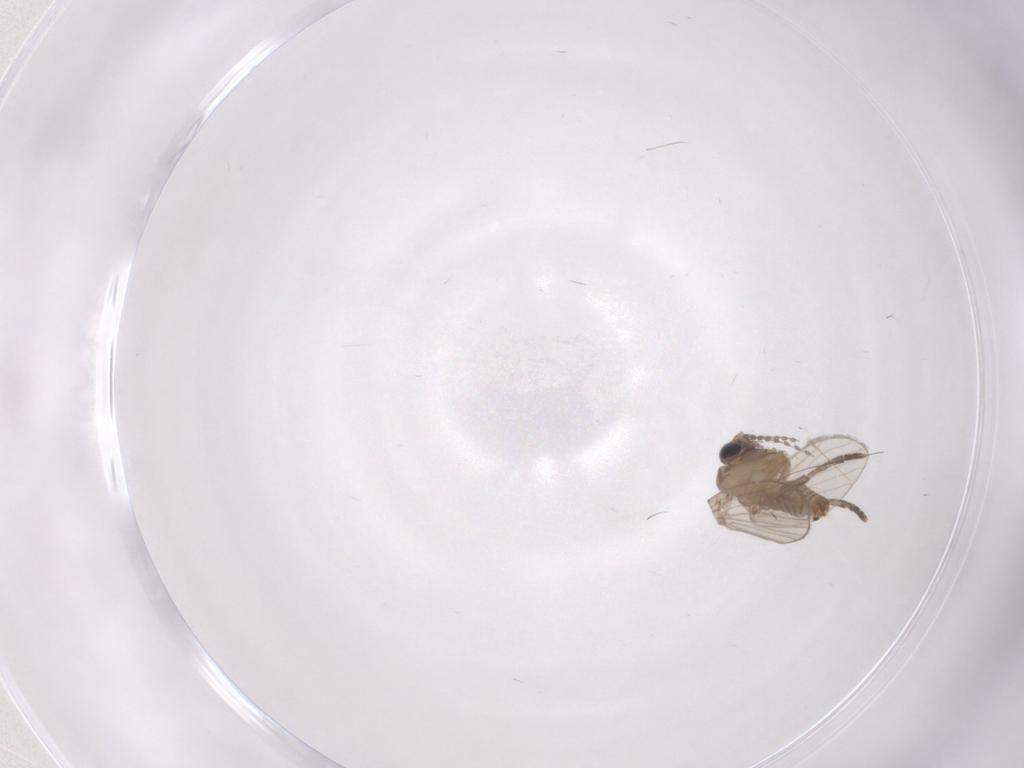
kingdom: Animalia
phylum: Arthropoda
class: Insecta
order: Diptera
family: Psychodidae
